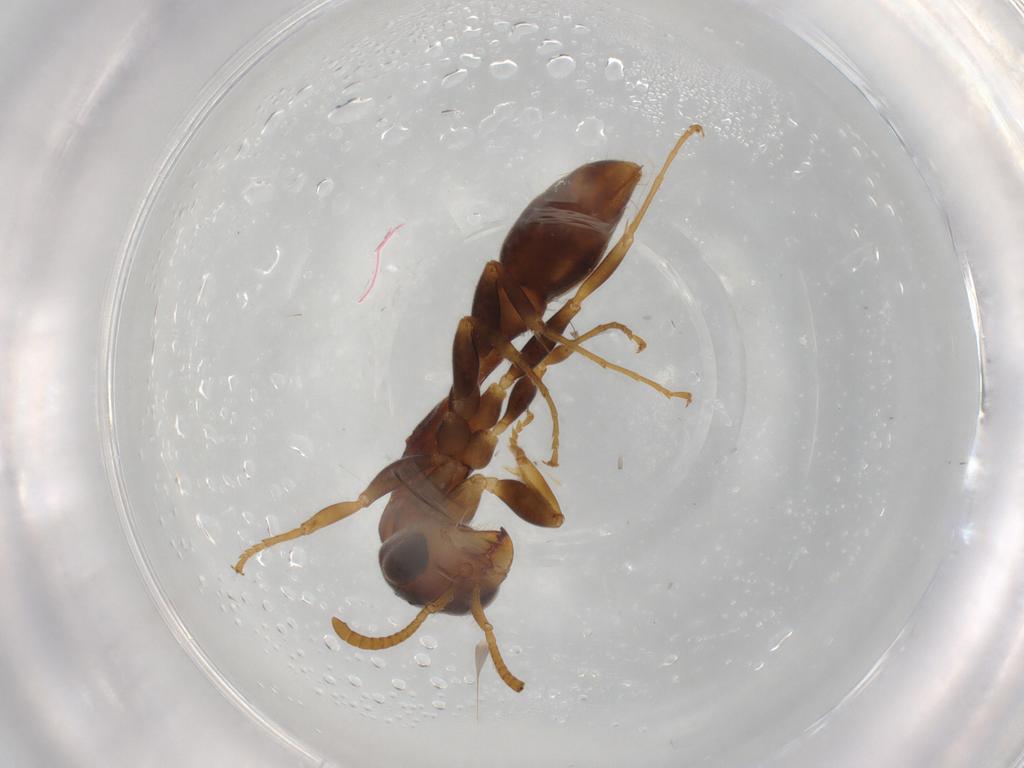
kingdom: Animalia
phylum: Arthropoda
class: Insecta
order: Hymenoptera
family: Formicidae
